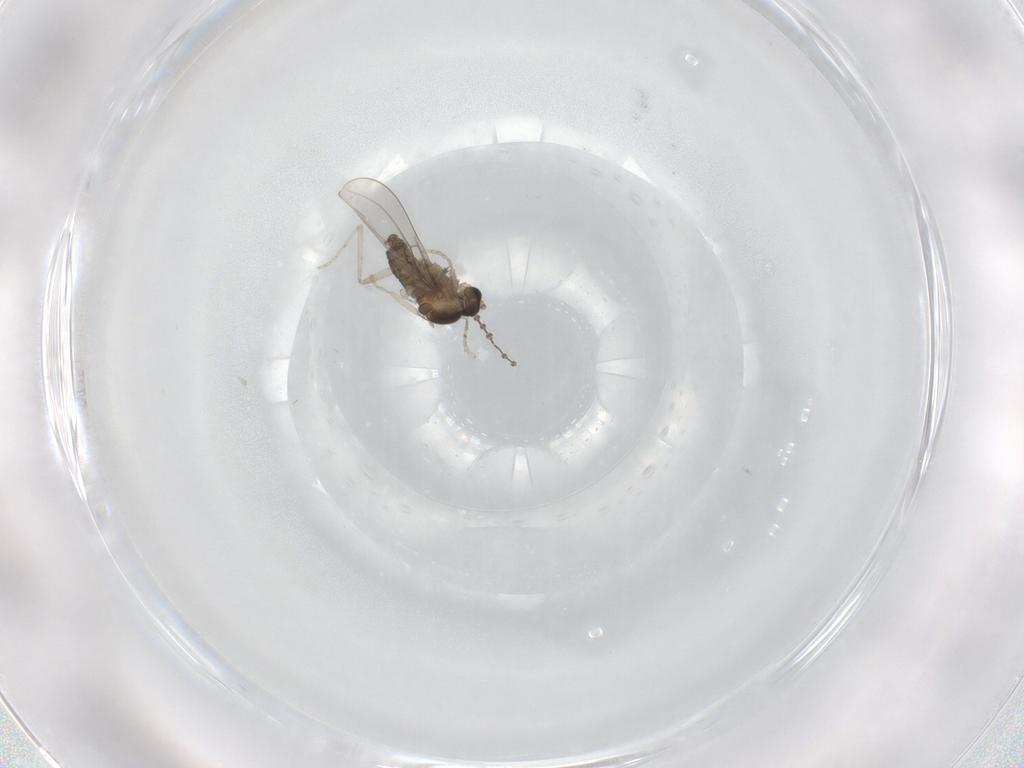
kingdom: Animalia
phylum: Arthropoda
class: Insecta
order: Diptera
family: Cecidomyiidae
